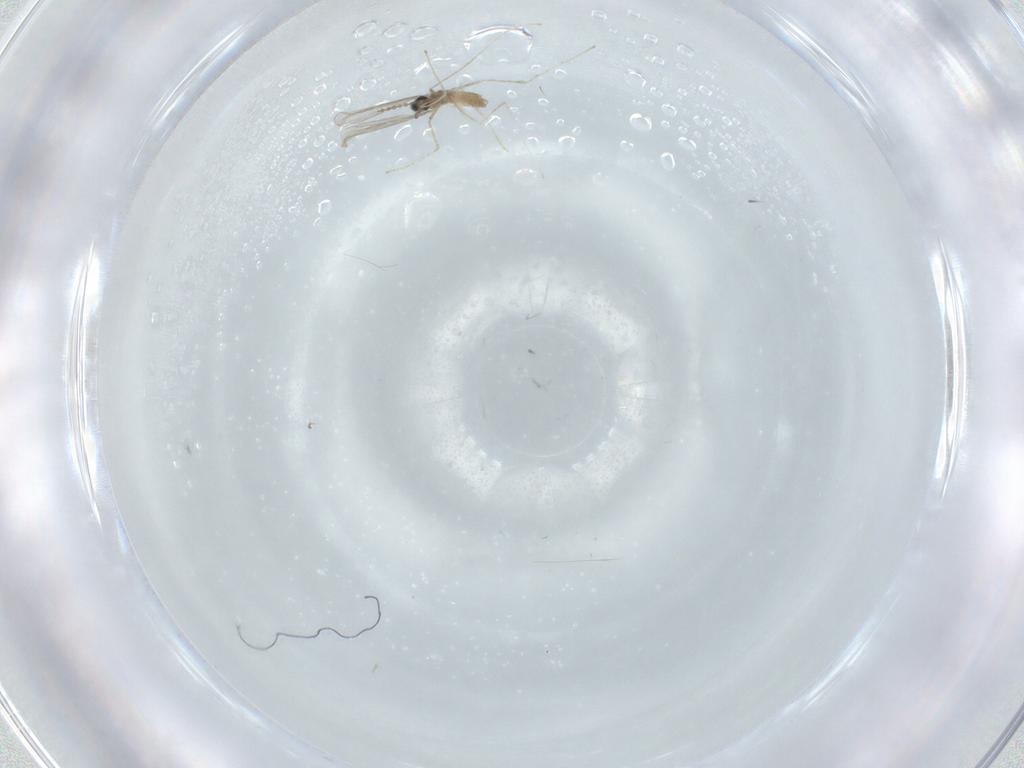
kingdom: Animalia
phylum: Arthropoda
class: Insecta
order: Diptera
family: Cecidomyiidae
